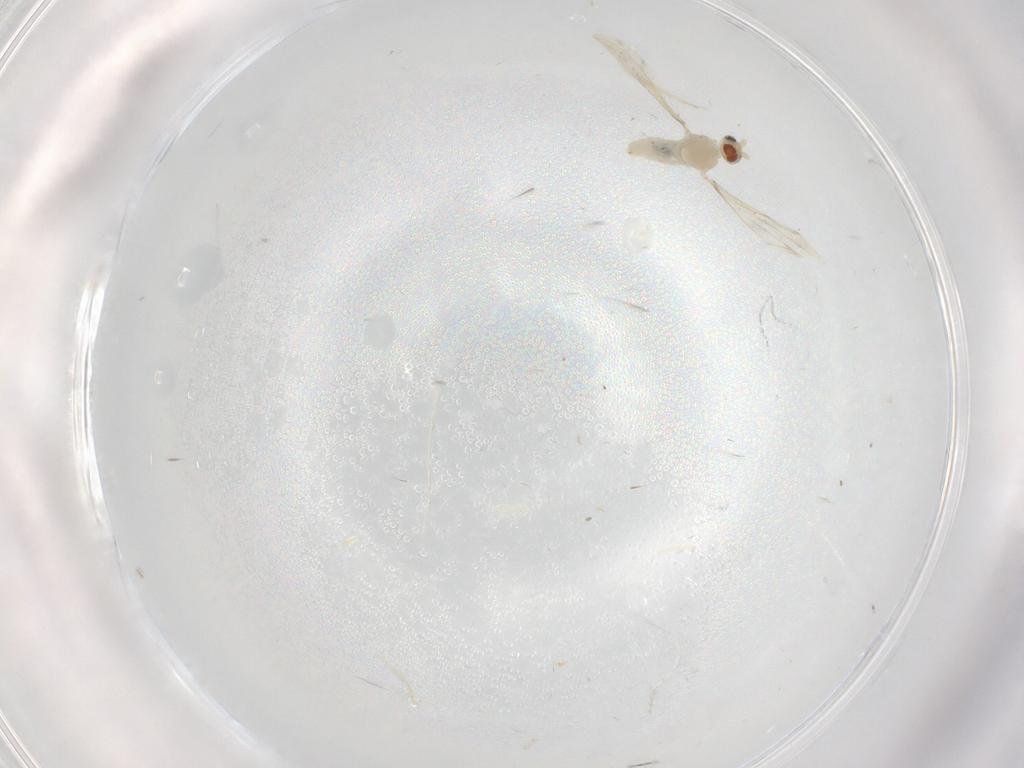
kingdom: Animalia
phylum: Arthropoda
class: Insecta
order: Diptera
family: Cecidomyiidae
